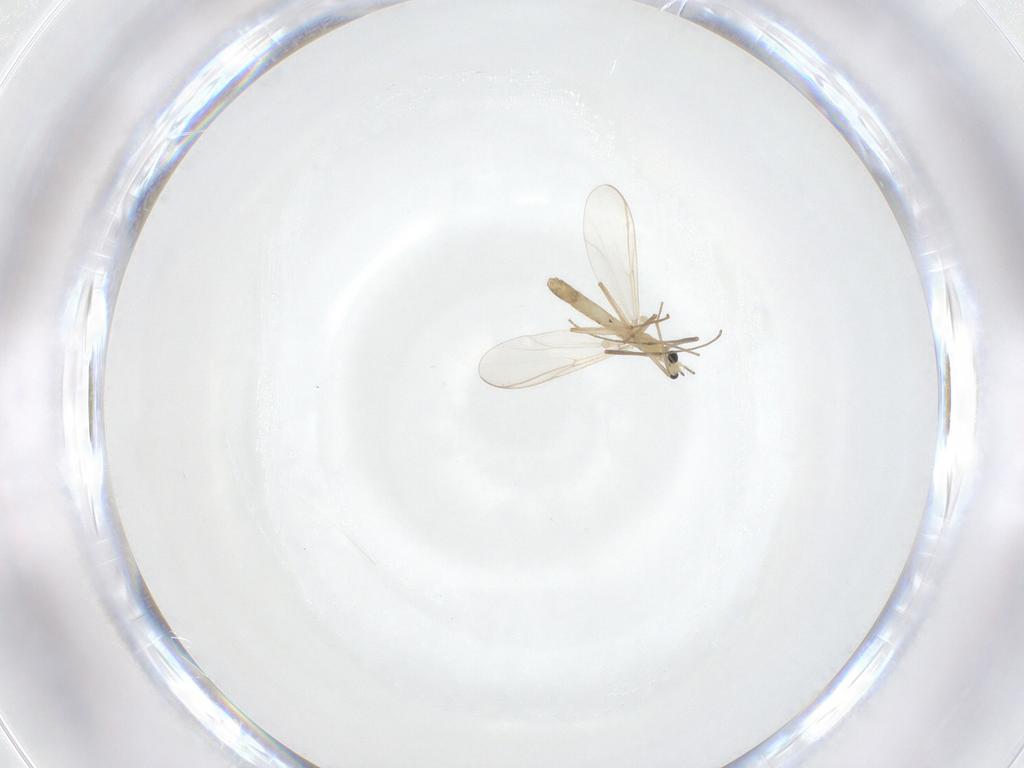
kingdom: Animalia
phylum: Arthropoda
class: Insecta
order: Diptera
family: Chironomidae
